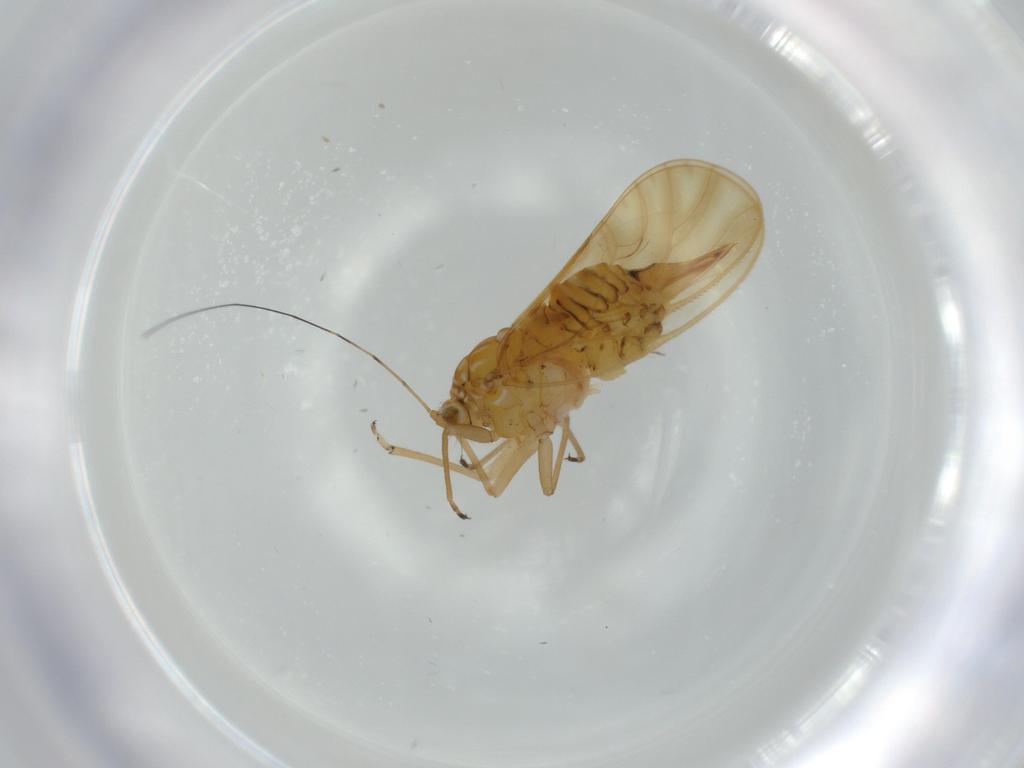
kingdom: Animalia
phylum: Arthropoda
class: Insecta
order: Hemiptera
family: Psyllidae
